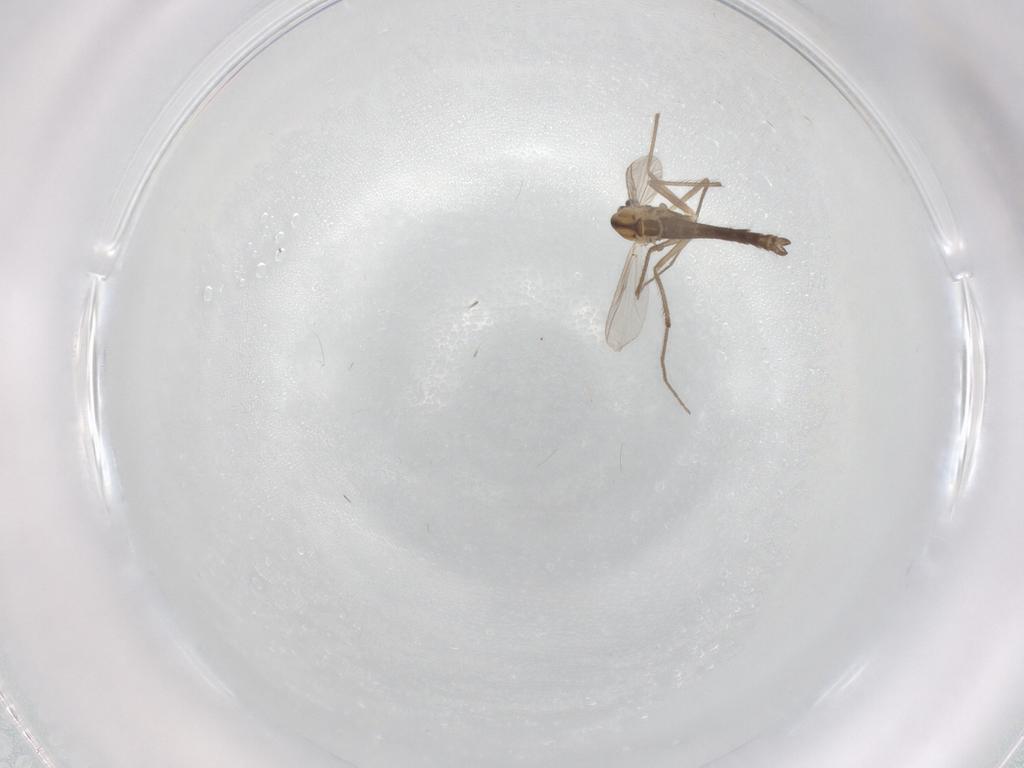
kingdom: Animalia
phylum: Arthropoda
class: Insecta
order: Diptera
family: Chironomidae
